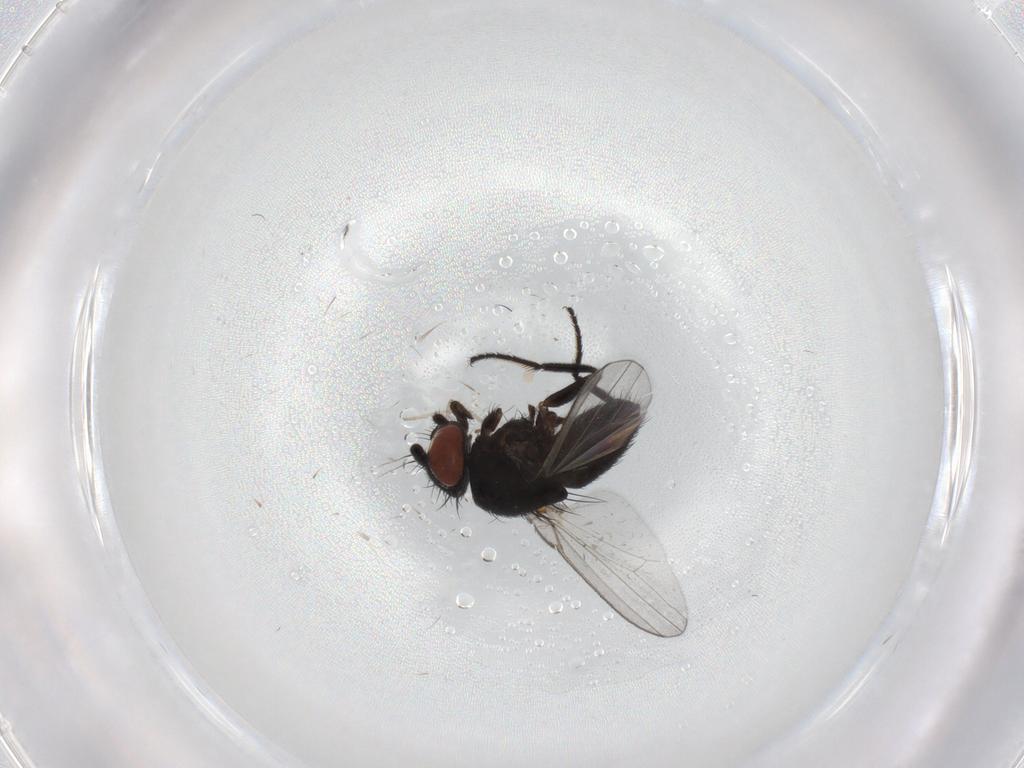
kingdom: Animalia
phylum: Arthropoda
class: Insecta
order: Diptera
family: Milichiidae
